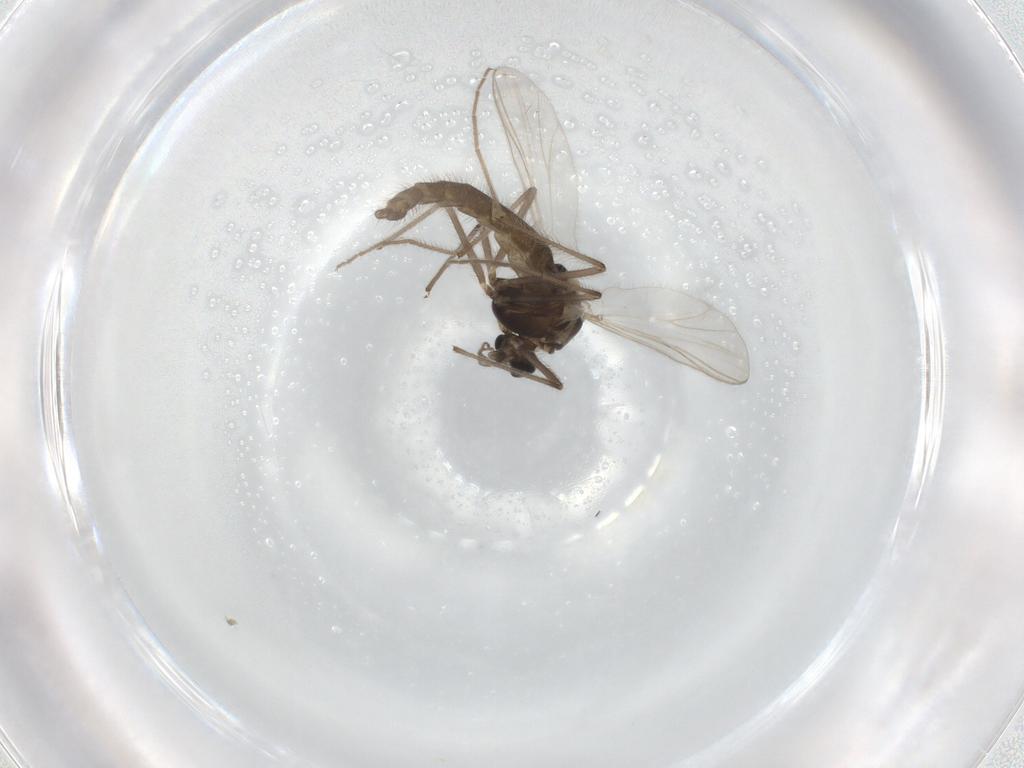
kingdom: Animalia
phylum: Arthropoda
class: Insecta
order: Diptera
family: Chironomidae
